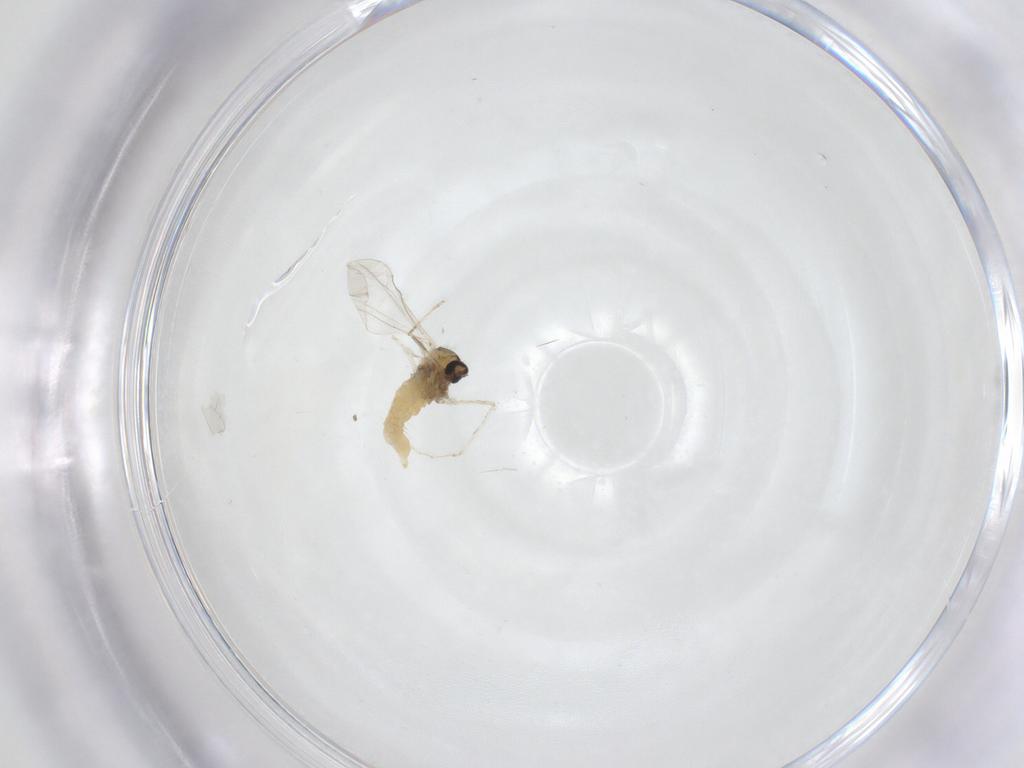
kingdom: Animalia
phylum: Arthropoda
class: Insecta
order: Diptera
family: Cecidomyiidae
